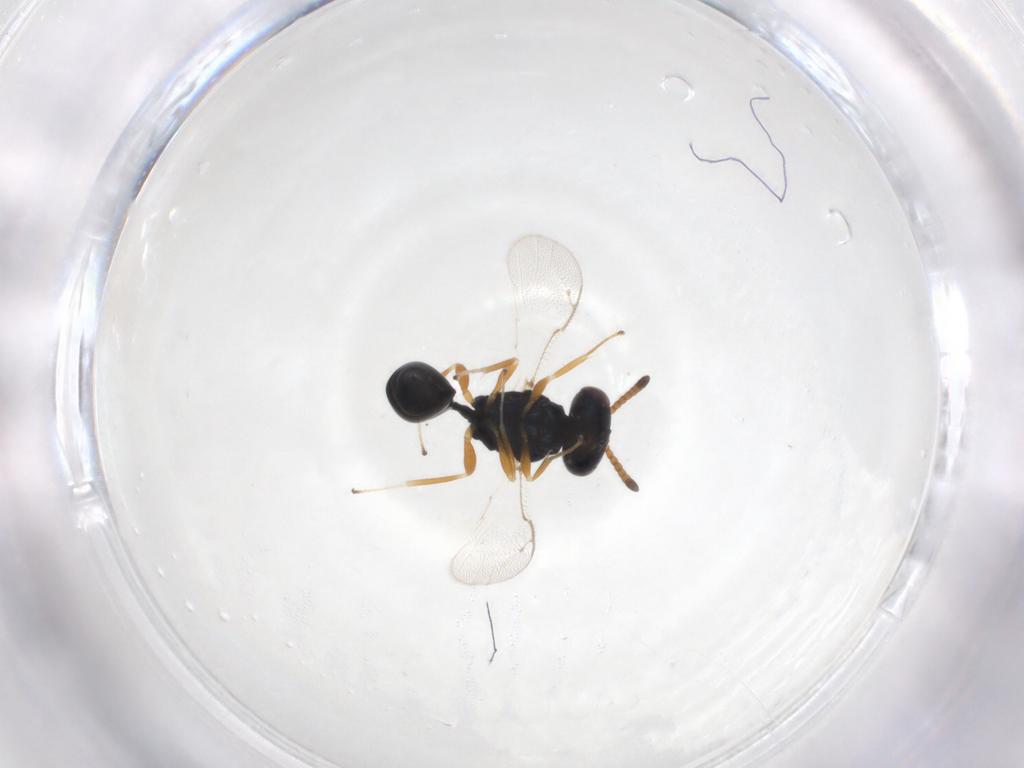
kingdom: Animalia
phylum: Arthropoda
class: Insecta
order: Hymenoptera
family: Pteromalidae
